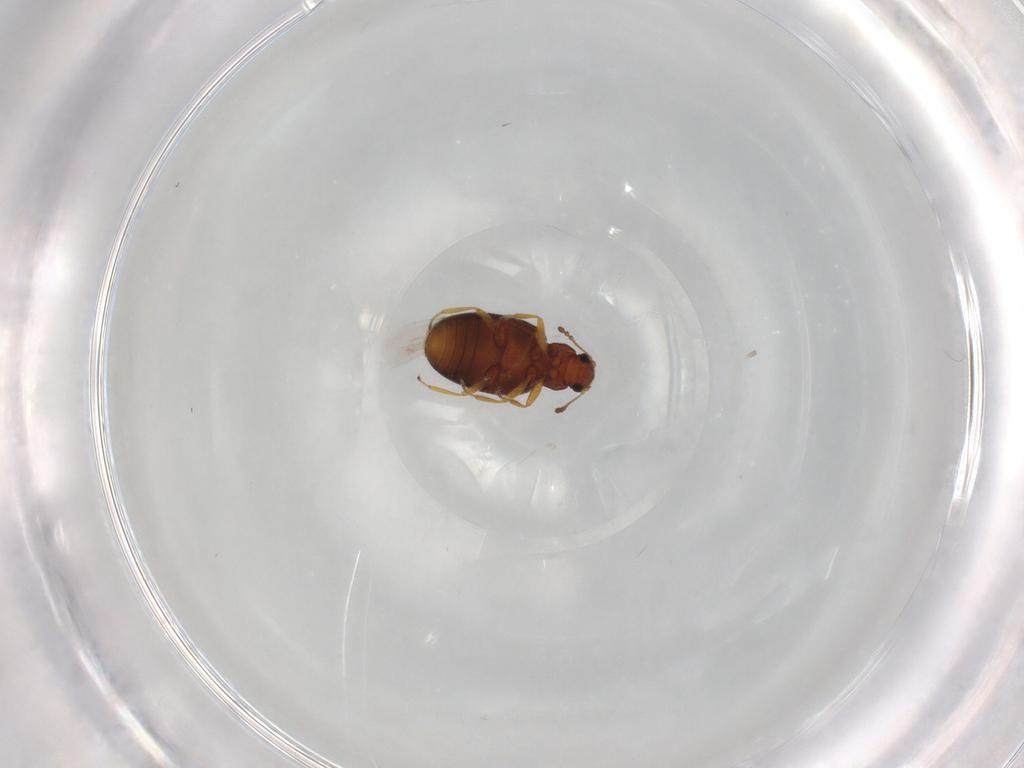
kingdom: Animalia
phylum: Arthropoda
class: Insecta
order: Coleoptera
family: Latridiidae
